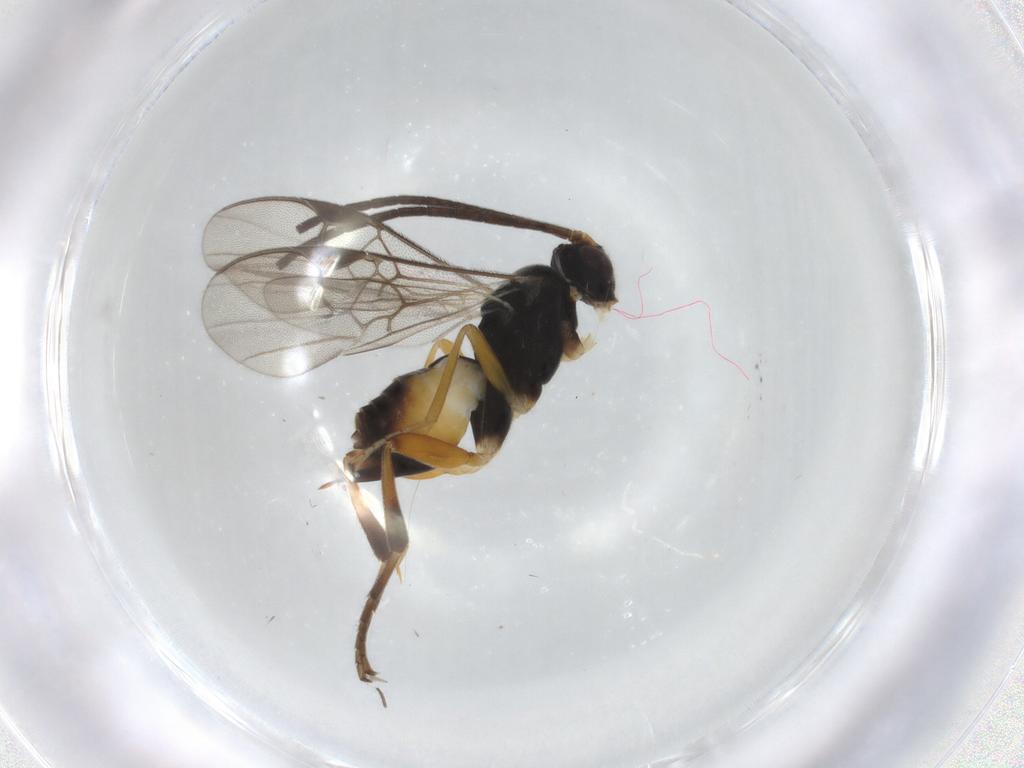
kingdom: Animalia
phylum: Arthropoda
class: Insecta
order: Hymenoptera
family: Braconidae
